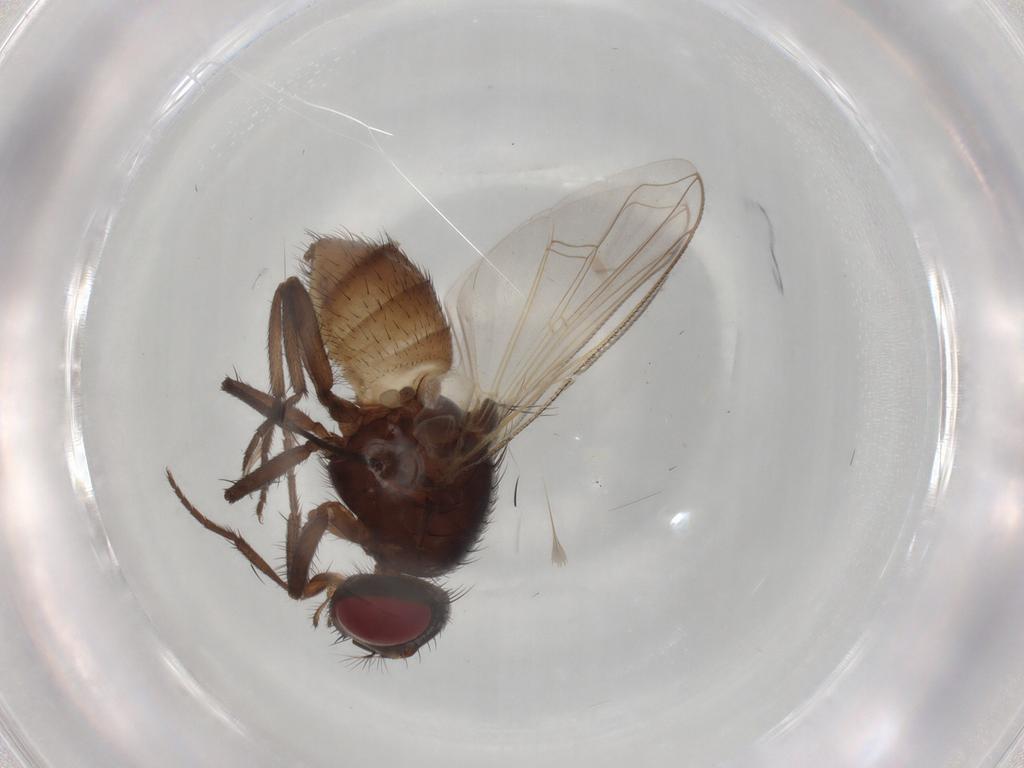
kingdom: Animalia
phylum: Arthropoda
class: Insecta
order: Diptera
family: Muscidae
